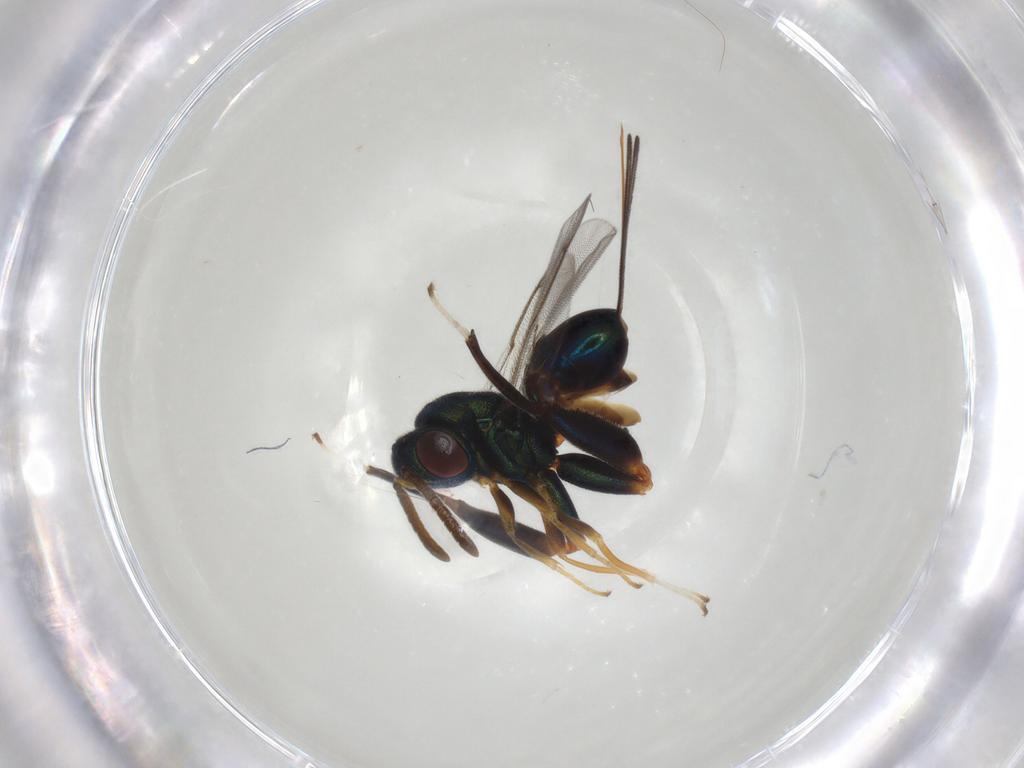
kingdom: Animalia
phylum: Arthropoda
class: Insecta
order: Hymenoptera
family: Torymidae
